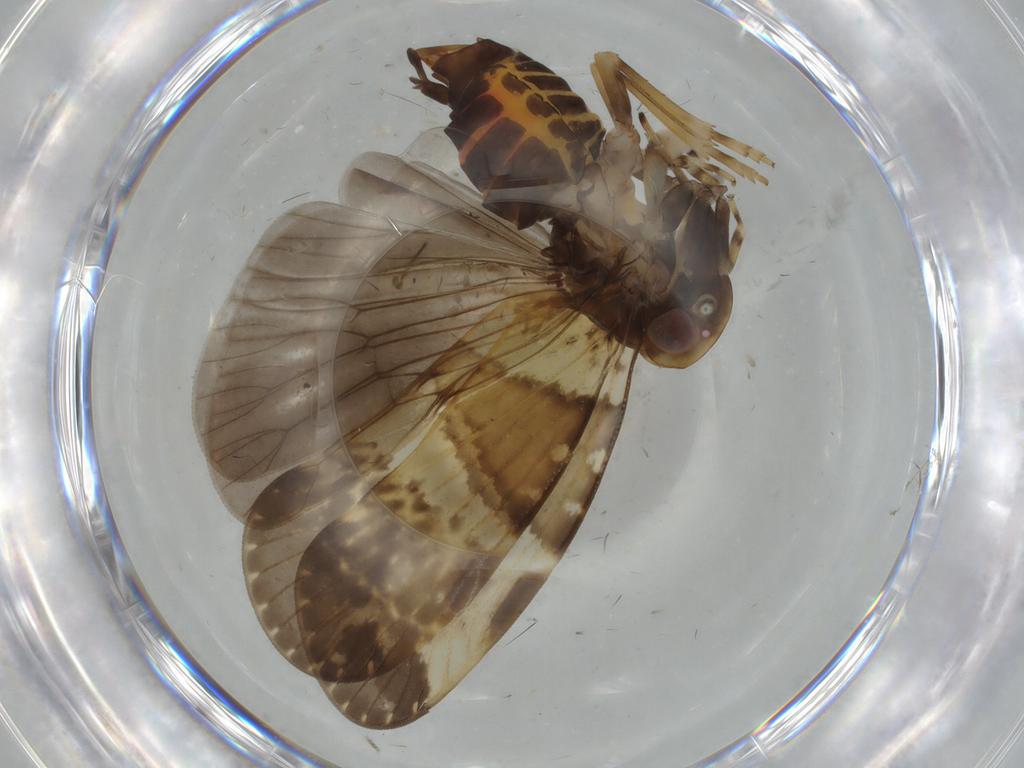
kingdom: Animalia
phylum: Arthropoda
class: Insecta
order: Hemiptera
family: Cixiidae
